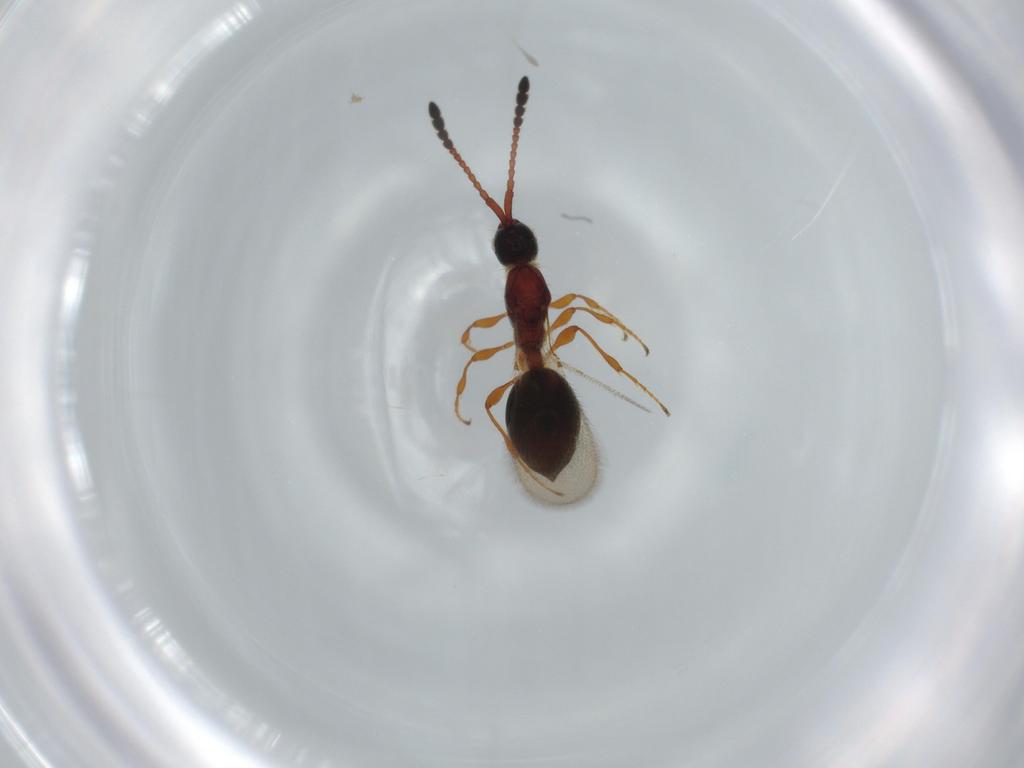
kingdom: Animalia
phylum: Arthropoda
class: Insecta
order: Hymenoptera
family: Diapriidae
